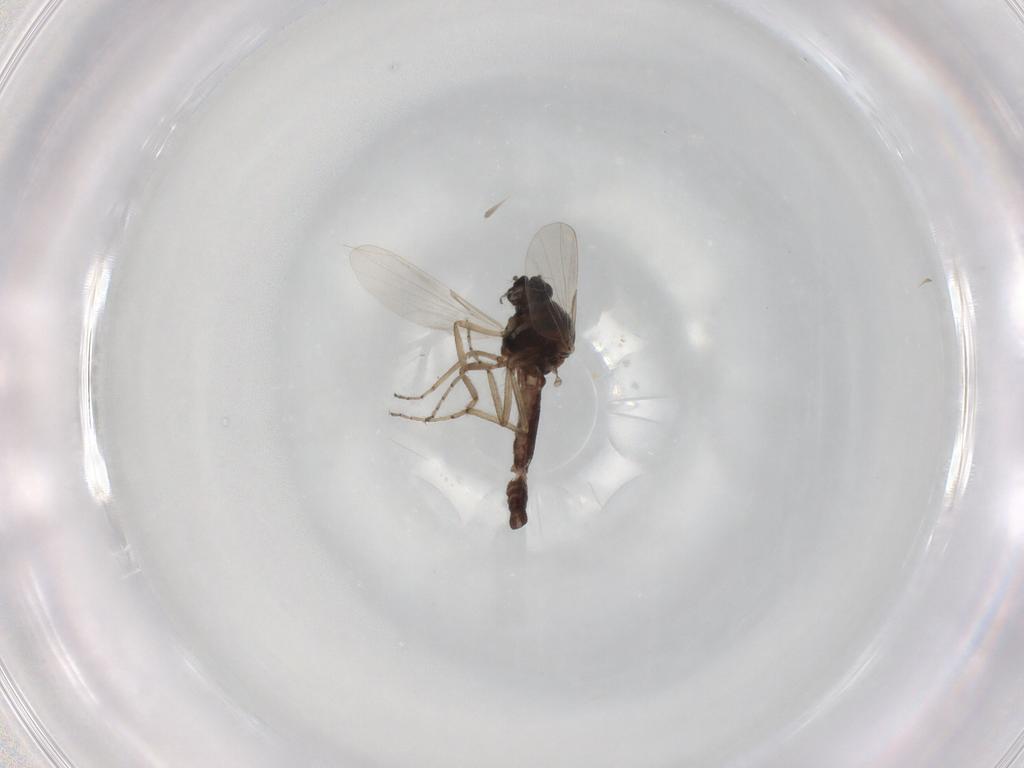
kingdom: Animalia
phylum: Arthropoda
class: Insecta
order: Diptera
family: Ceratopogonidae
